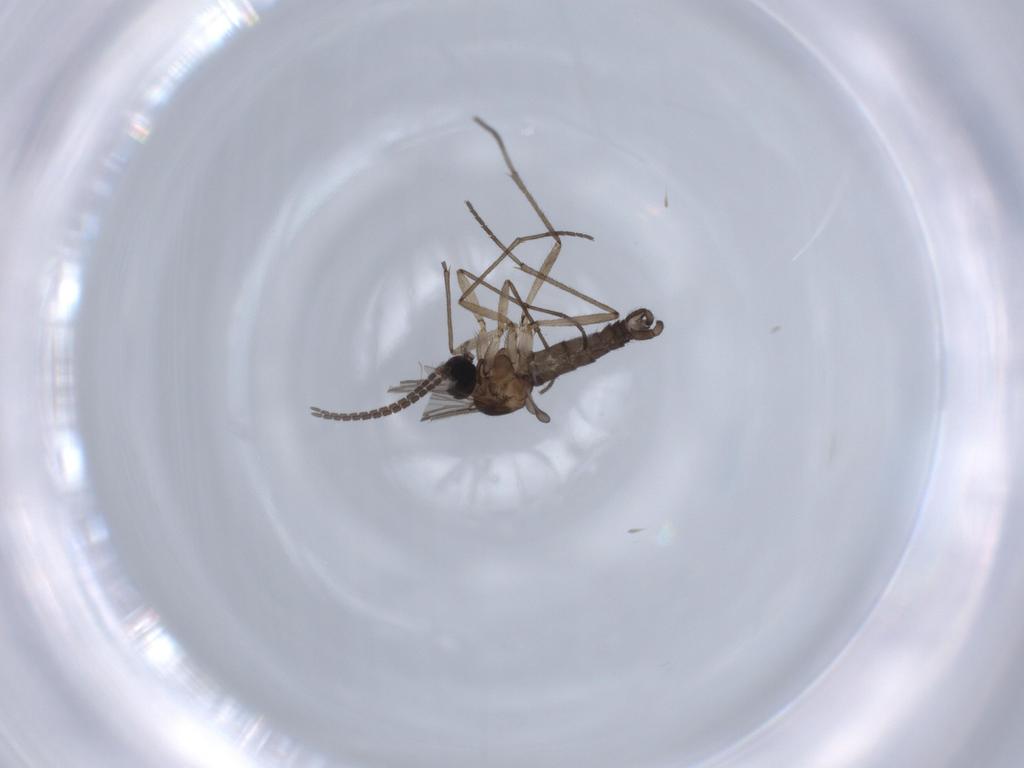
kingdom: Animalia
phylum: Arthropoda
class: Insecta
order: Diptera
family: Sciaridae
